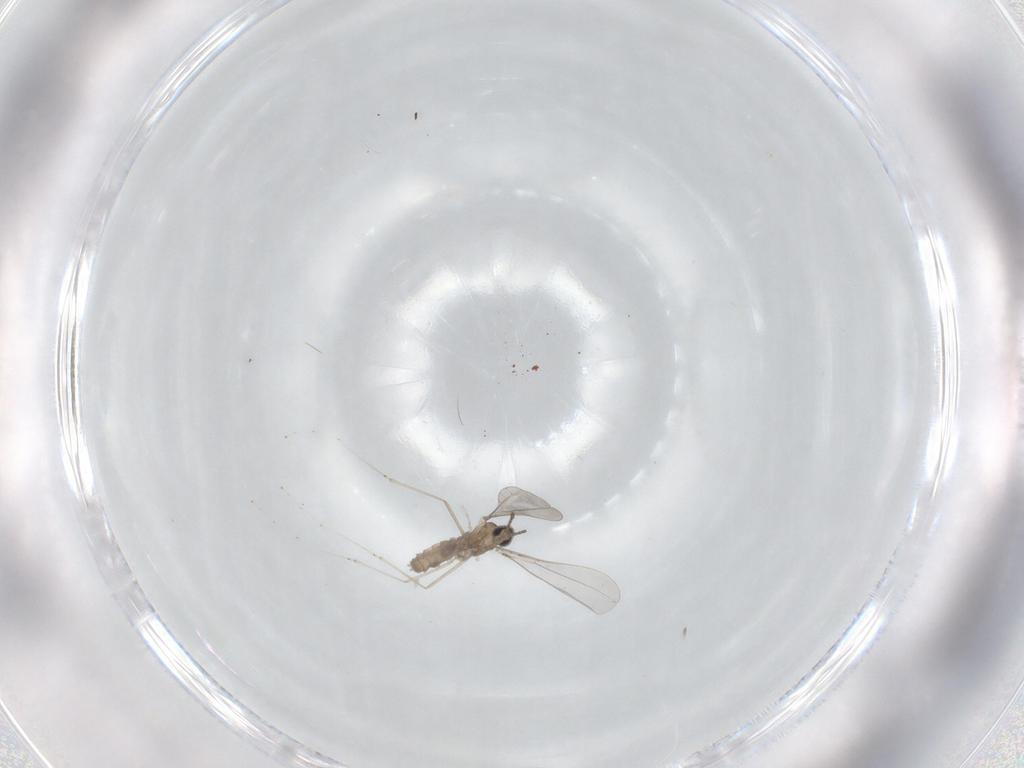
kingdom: Animalia
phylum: Arthropoda
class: Insecta
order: Diptera
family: Cecidomyiidae
